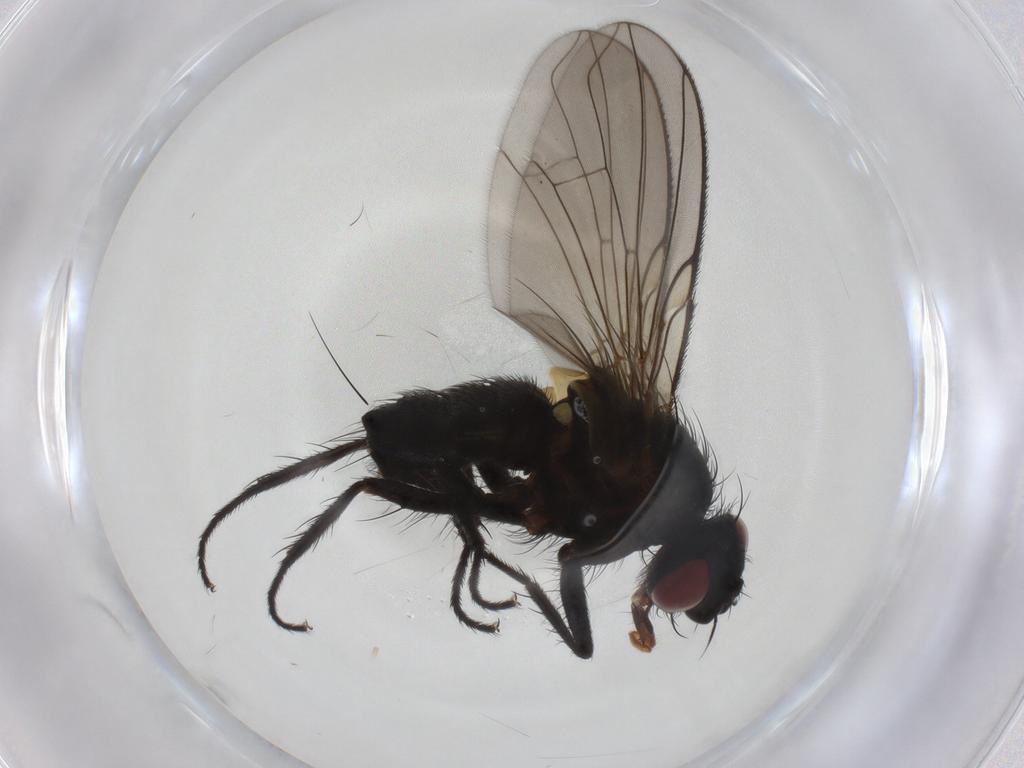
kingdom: Animalia
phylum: Arthropoda
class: Insecta
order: Diptera
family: Tachinidae
